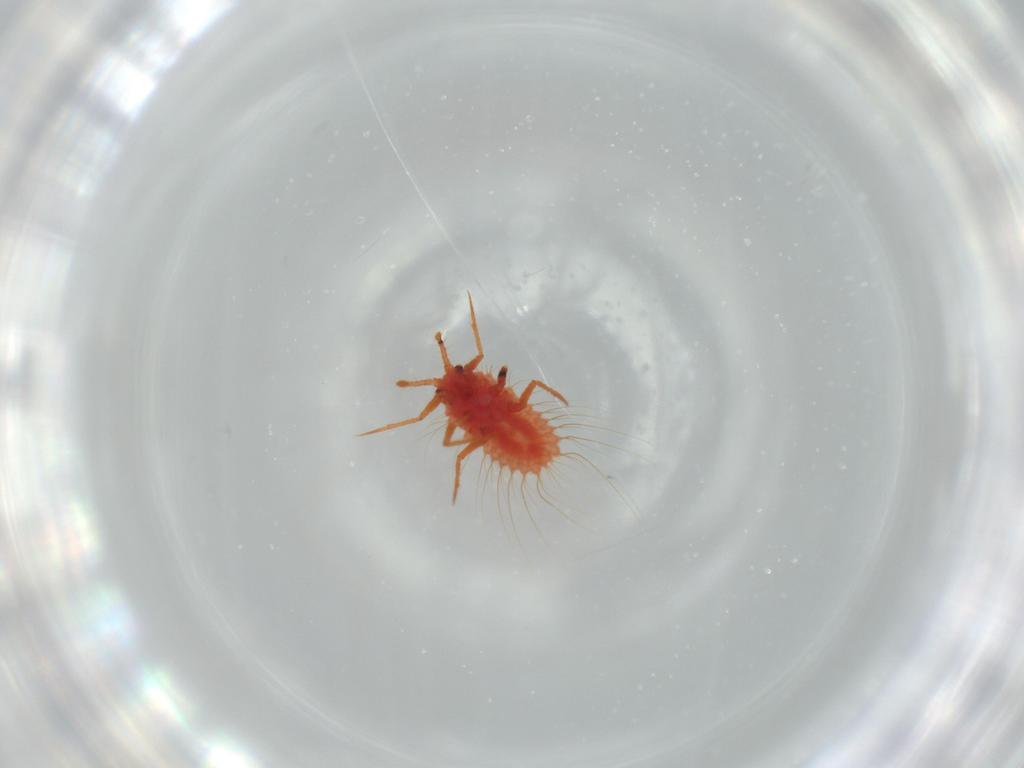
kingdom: Animalia
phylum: Arthropoda
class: Insecta
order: Hemiptera
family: Monophlebidae
